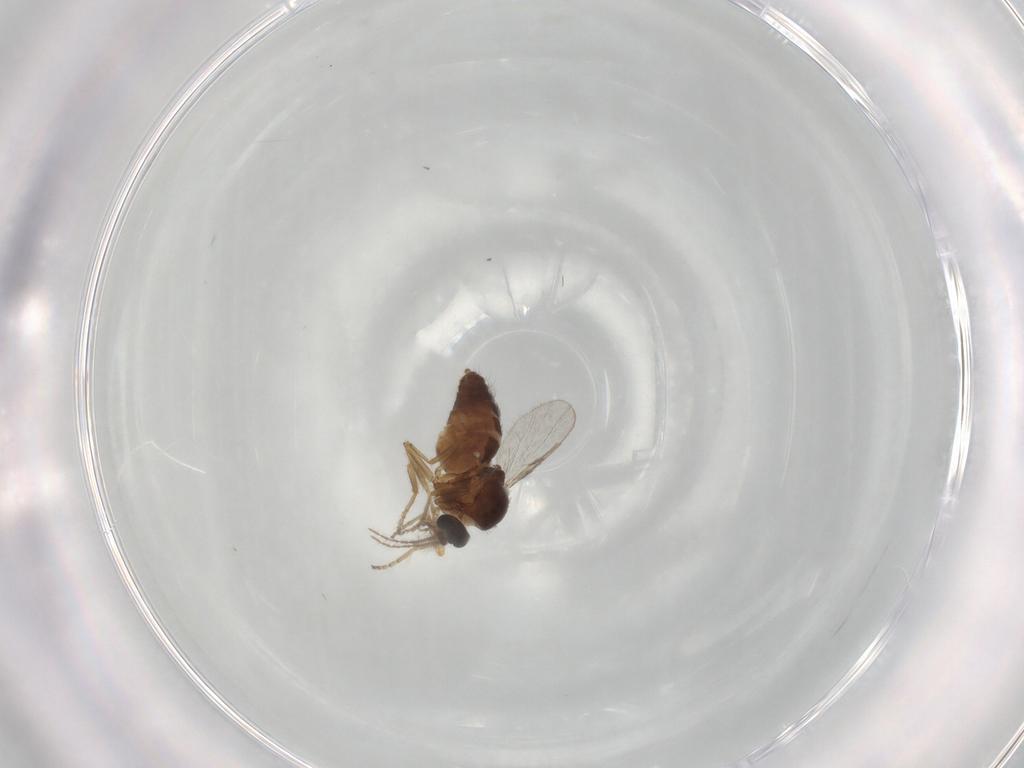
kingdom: Animalia
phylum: Arthropoda
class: Insecta
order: Diptera
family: Ceratopogonidae
